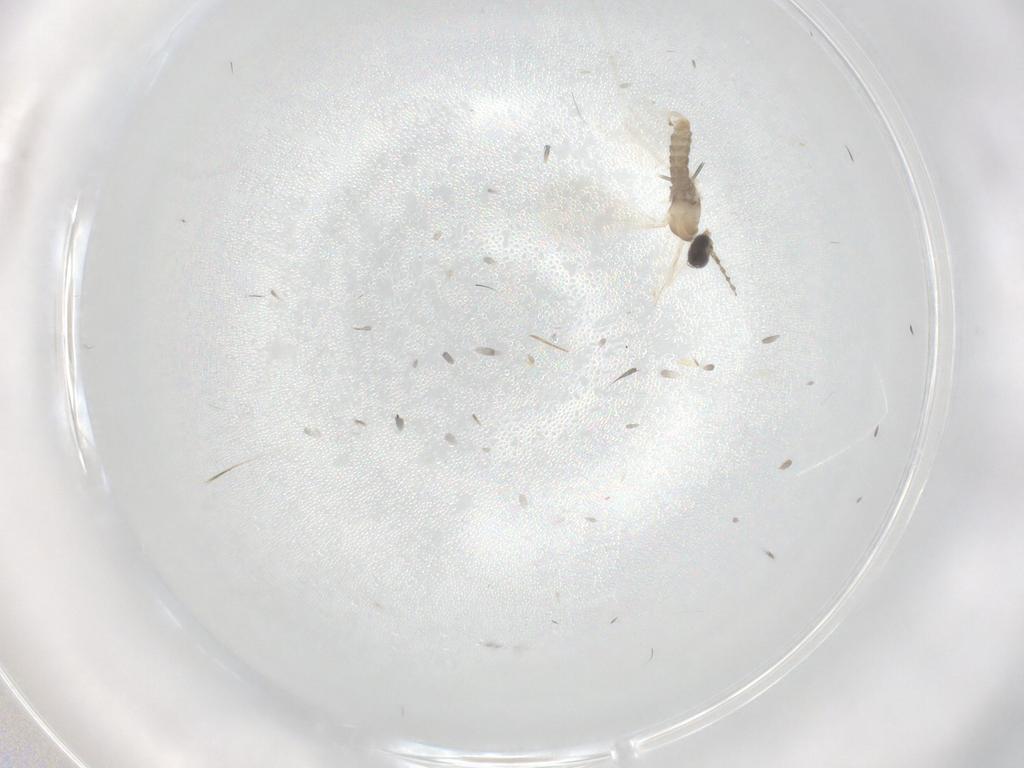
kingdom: Animalia
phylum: Arthropoda
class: Insecta
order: Diptera
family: Cecidomyiidae
